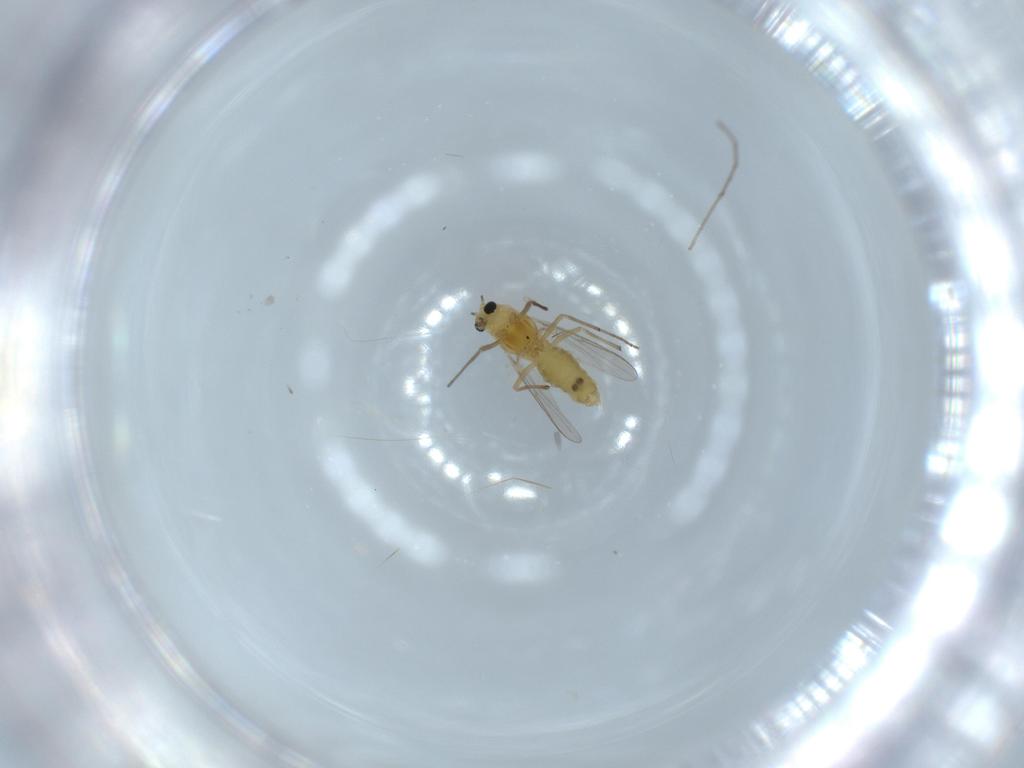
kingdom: Animalia
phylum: Arthropoda
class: Insecta
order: Diptera
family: Chironomidae
